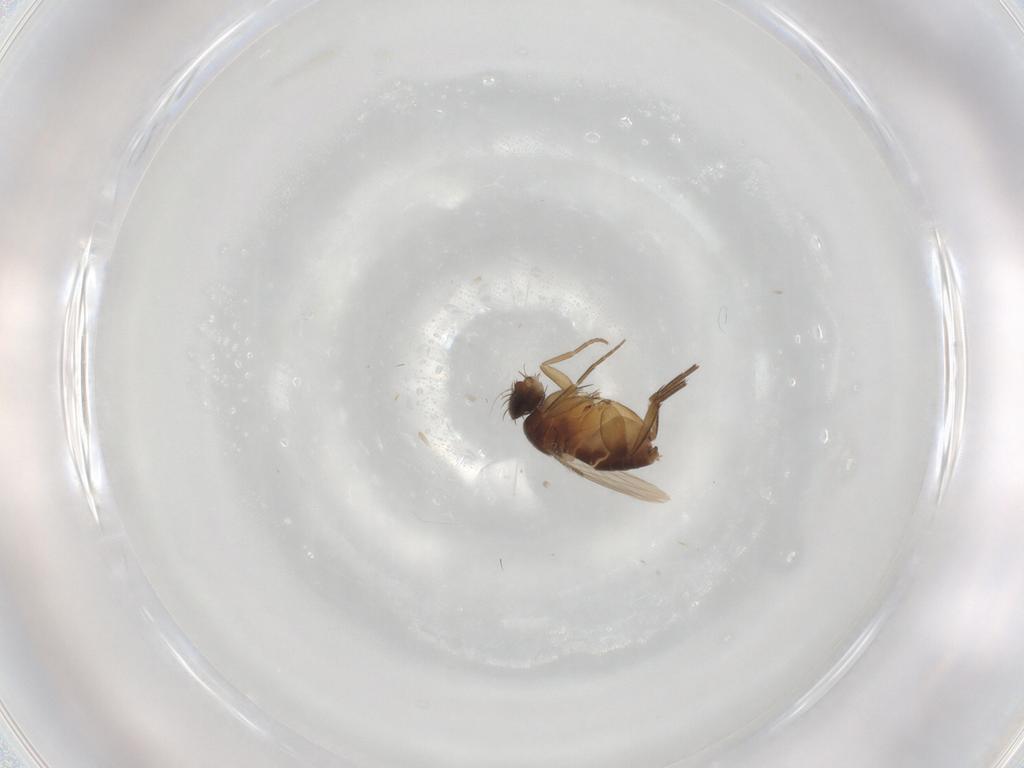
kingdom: Animalia
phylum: Arthropoda
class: Insecta
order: Diptera
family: Phoridae
